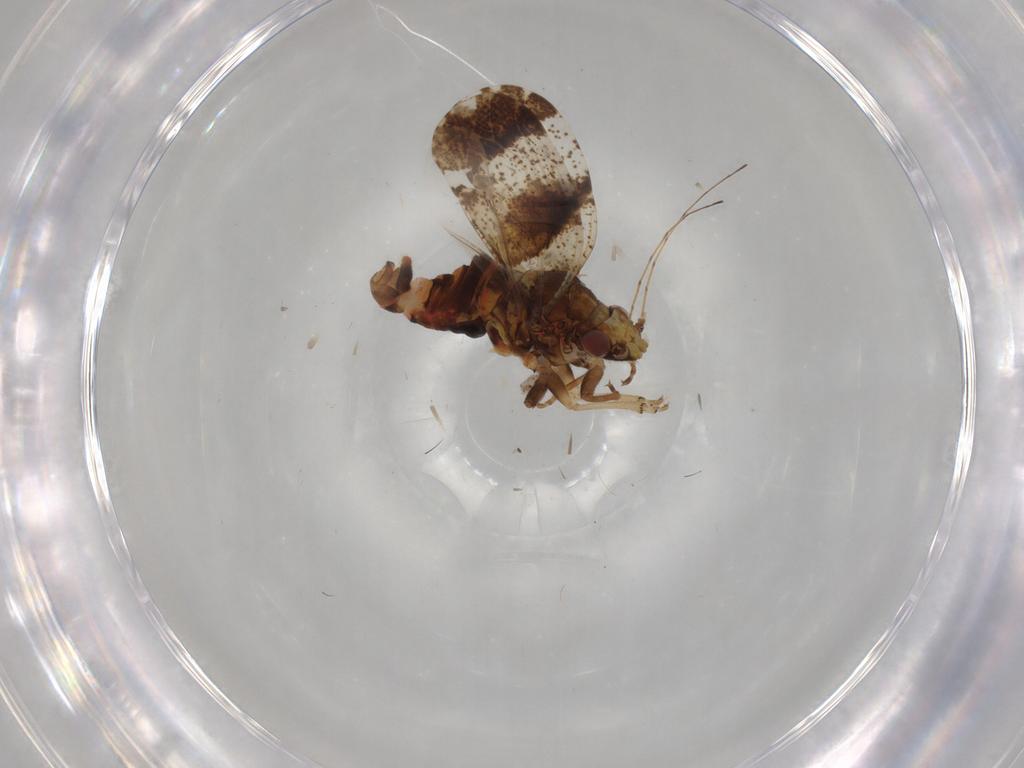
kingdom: Animalia
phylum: Arthropoda
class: Insecta
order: Hemiptera
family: Psyllidae
